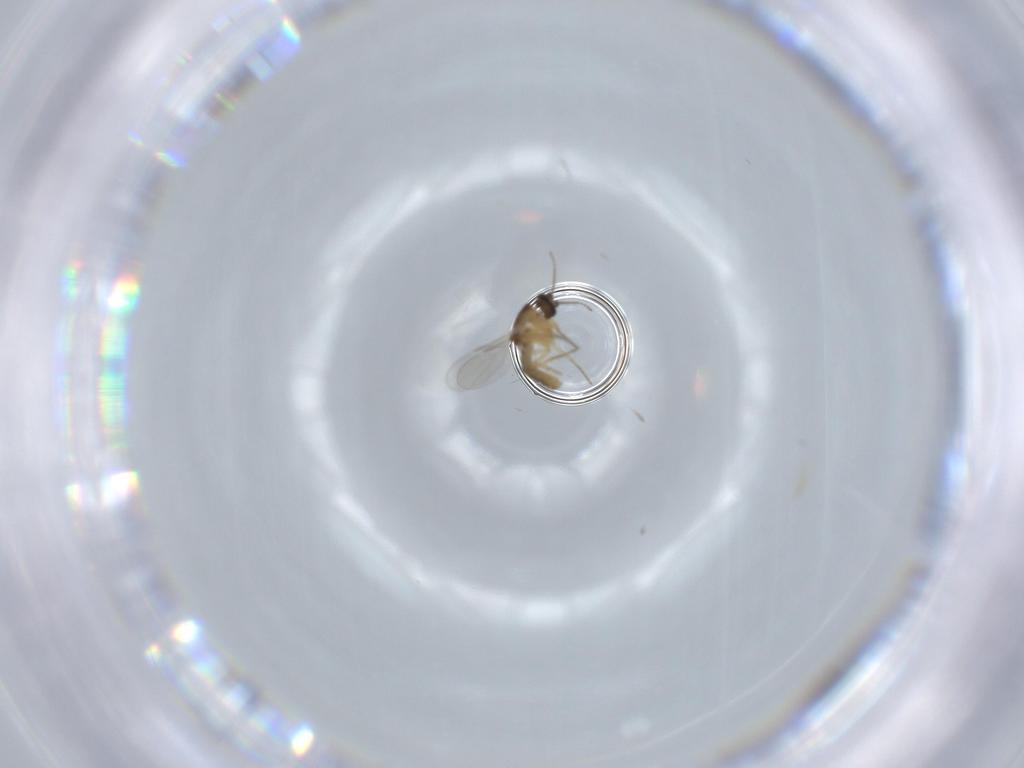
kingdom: Animalia
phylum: Arthropoda
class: Insecta
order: Diptera
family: Ceratopogonidae
